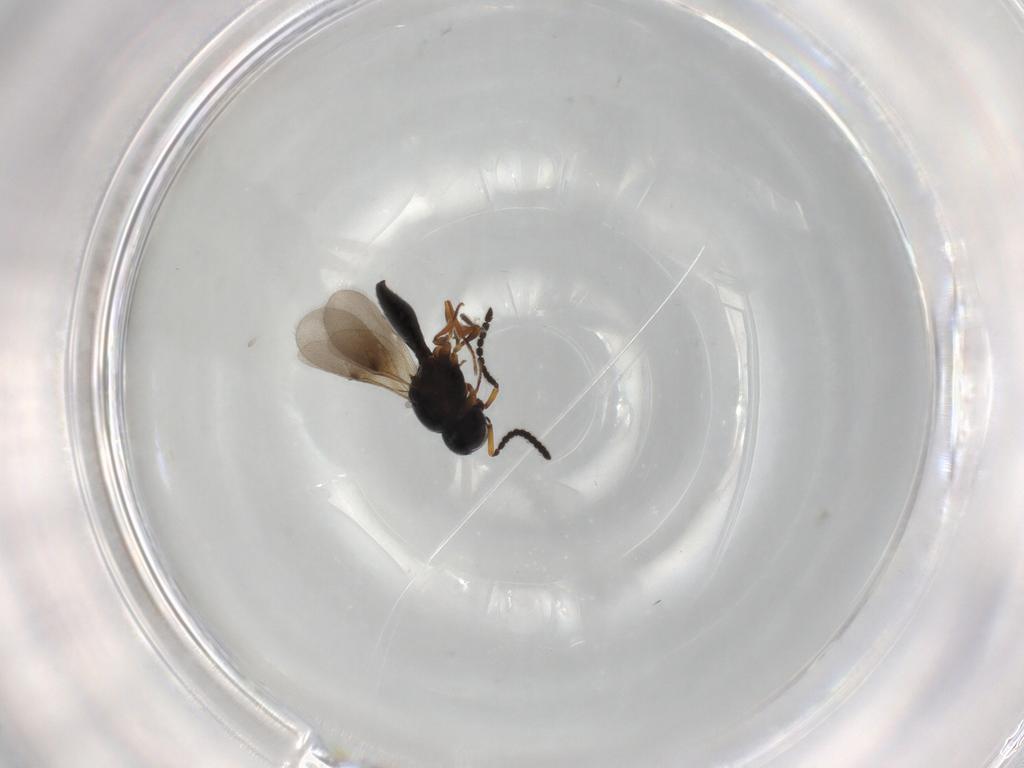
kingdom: Animalia
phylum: Arthropoda
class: Insecta
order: Hymenoptera
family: Scelionidae
